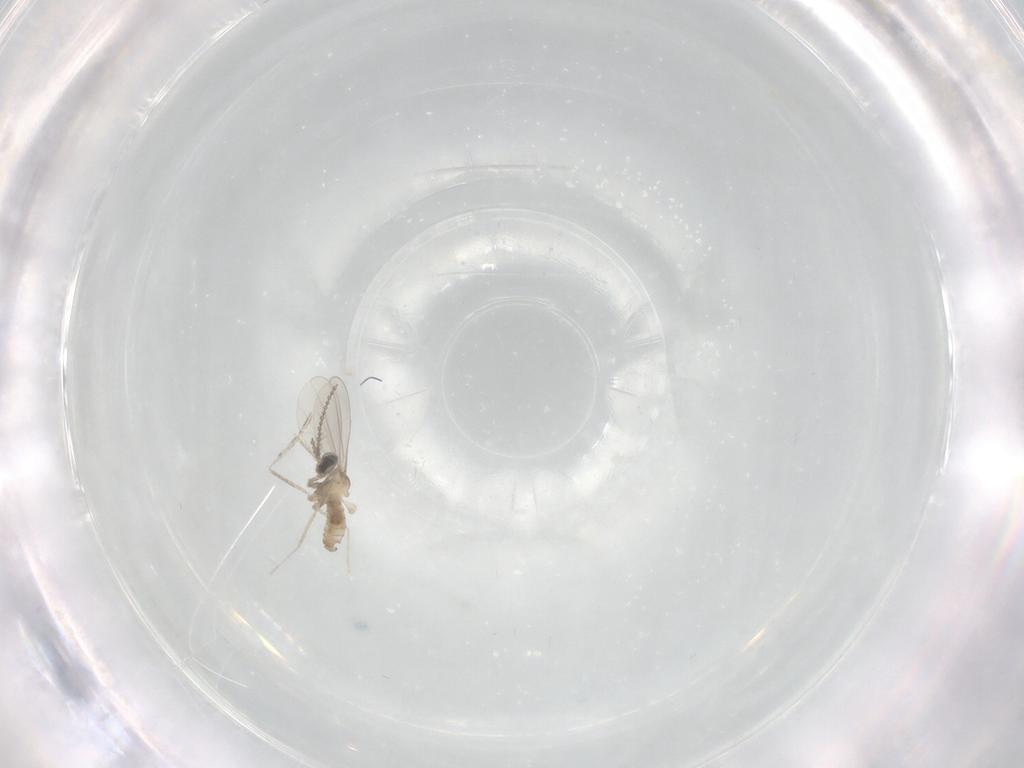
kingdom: Animalia
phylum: Arthropoda
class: Insecta
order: Diptera
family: Cecidomyiidae
